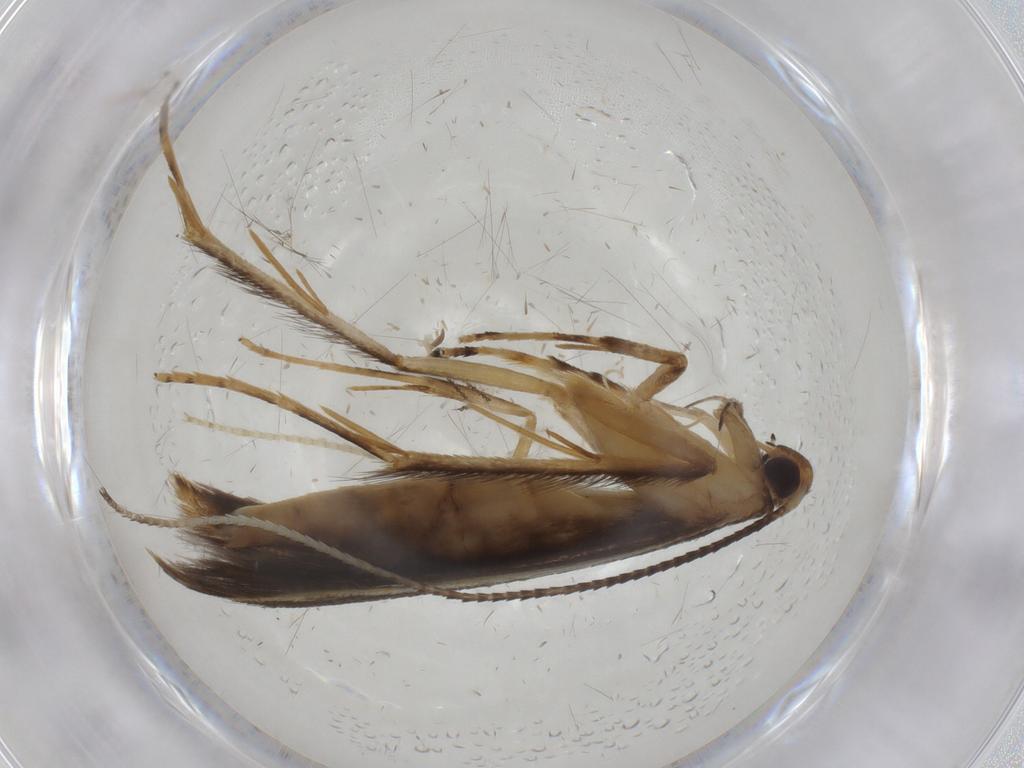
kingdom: Animalia
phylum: Arthropoda
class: Insecta
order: Lepidoptera
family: Pterolonchidae
